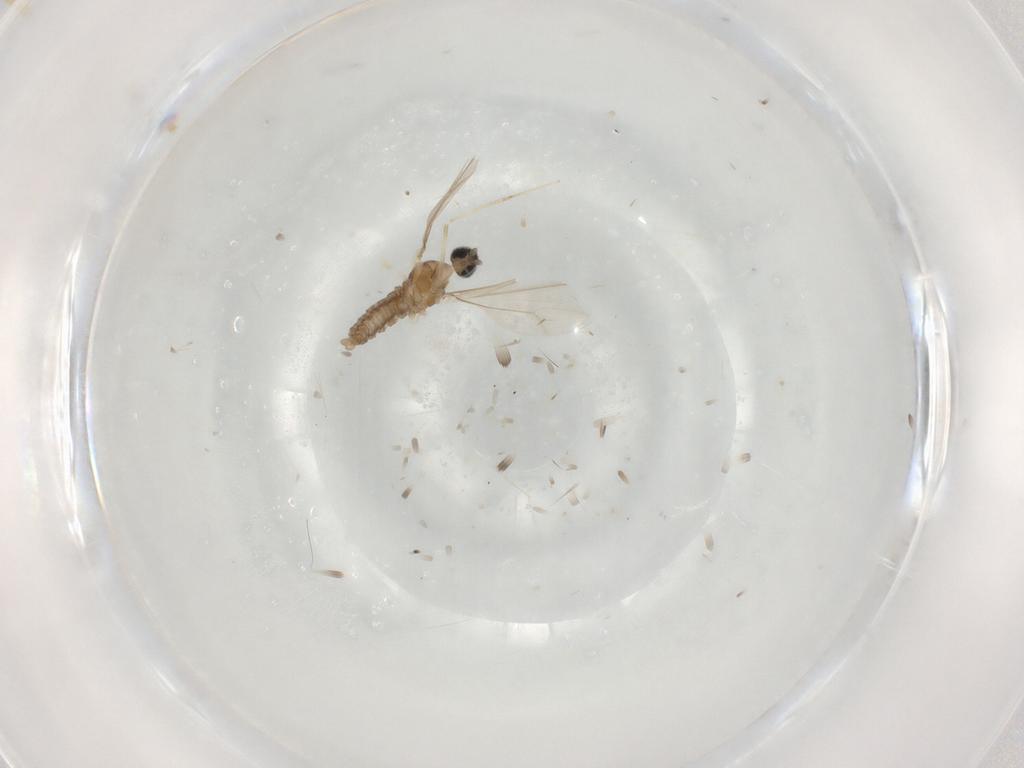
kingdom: Animalia
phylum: Arthropoda
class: Insecta
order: Diptera
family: Cecidomyiidae
